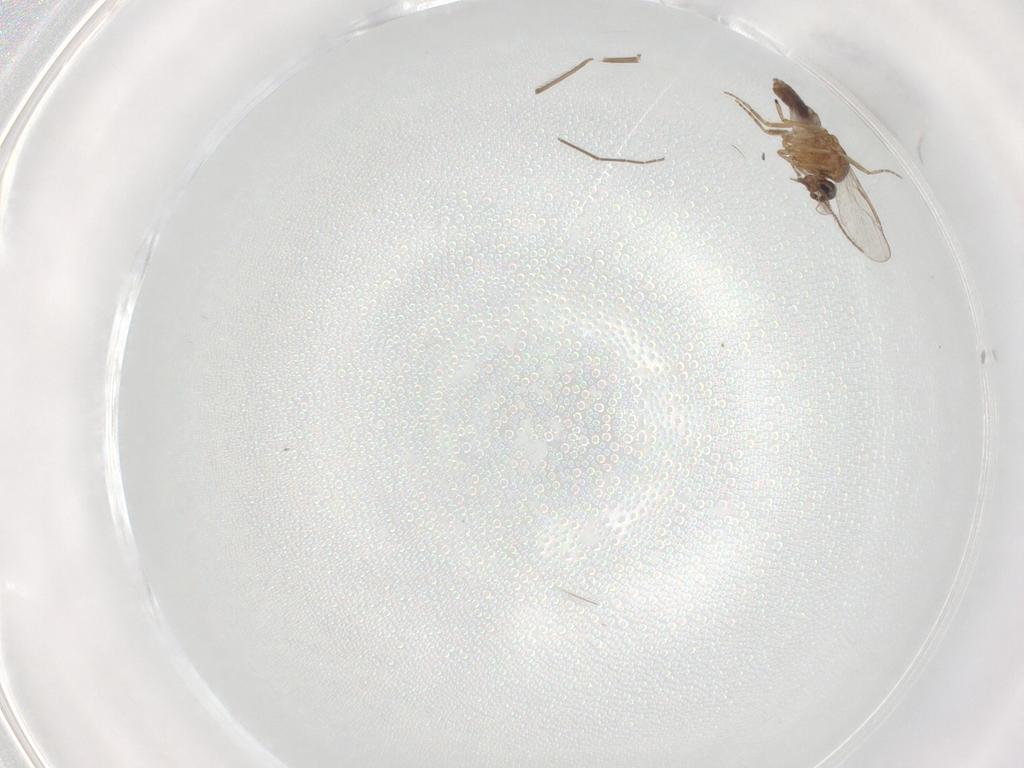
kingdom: Animalia
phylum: Arthropoda
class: Insecta
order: Diptera
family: Chironomidae
